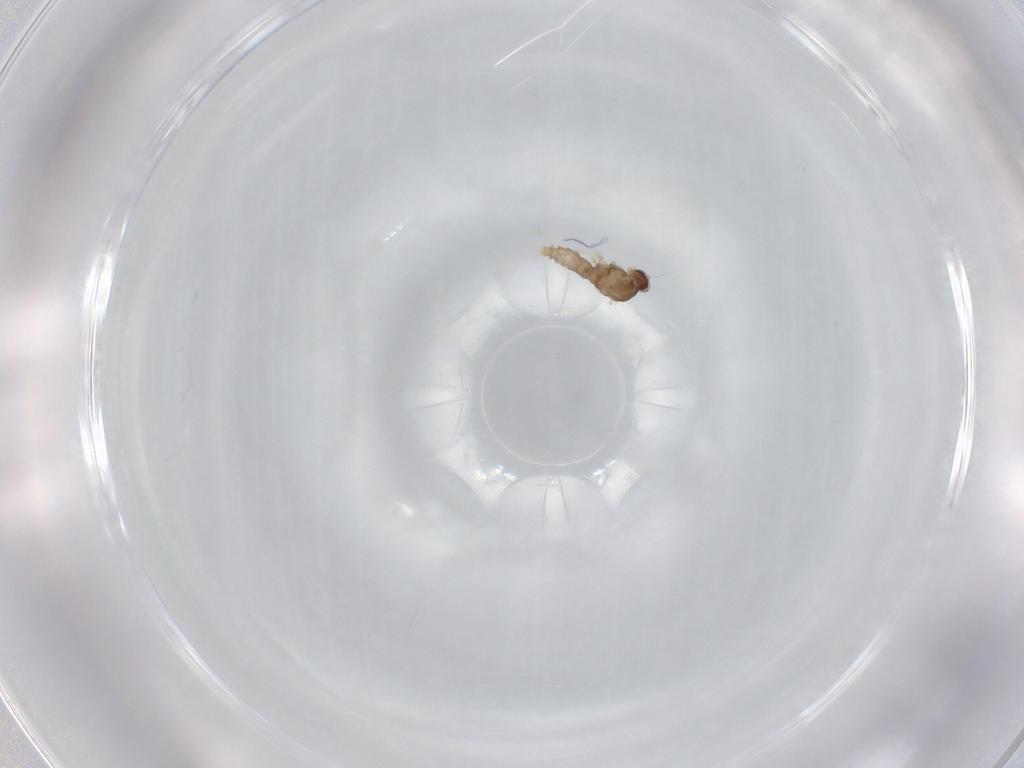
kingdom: Animalia
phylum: Arthropoda
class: Insecta
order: Diptera
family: Cecidomyiidae
